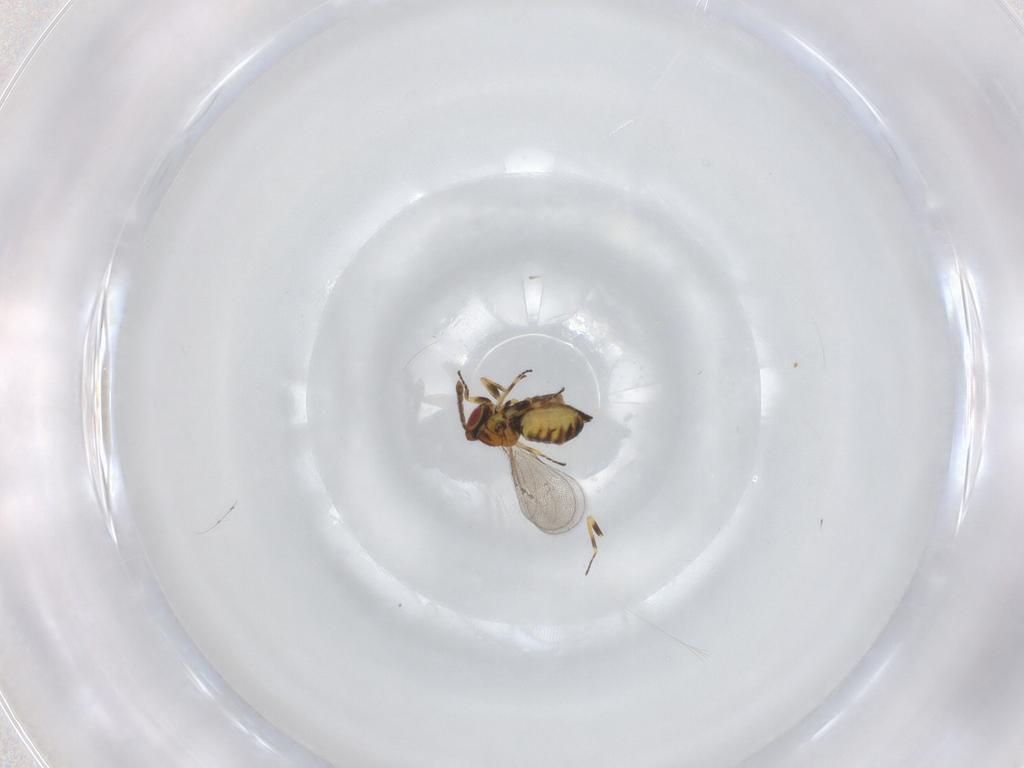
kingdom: Animalia
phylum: Arthropoda
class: Insecta
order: Hymenoptera
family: Eulophidae
